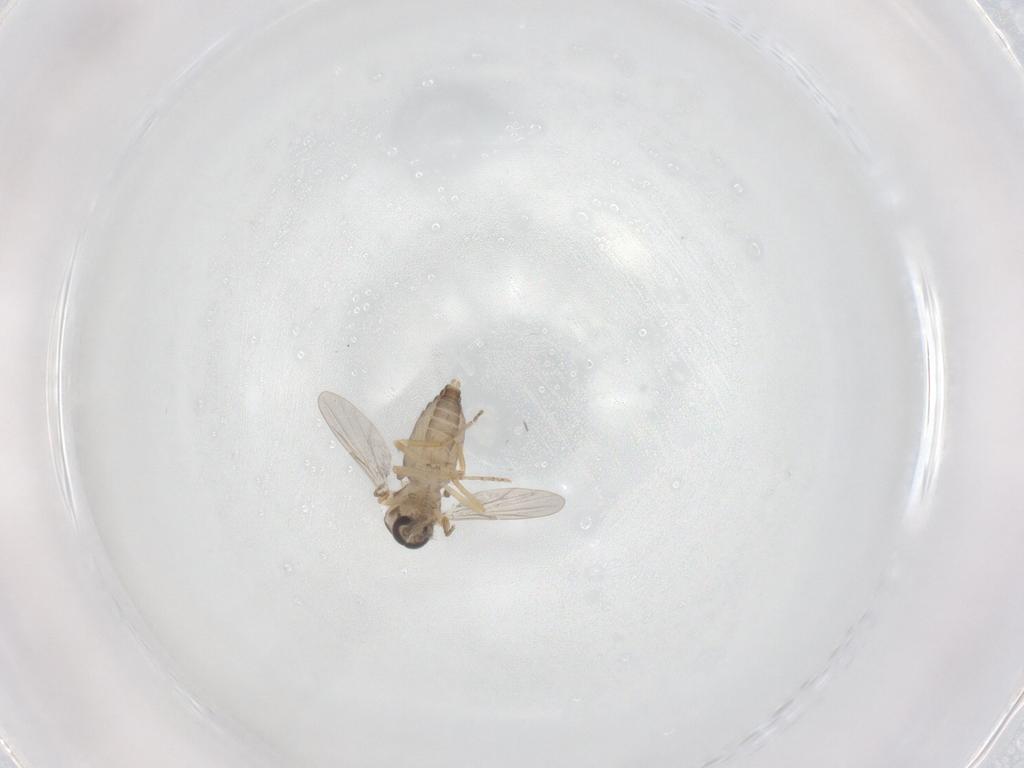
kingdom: Animalia
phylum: Arthropoda
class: Insecta
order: Diptera
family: Ceratopogonidae
